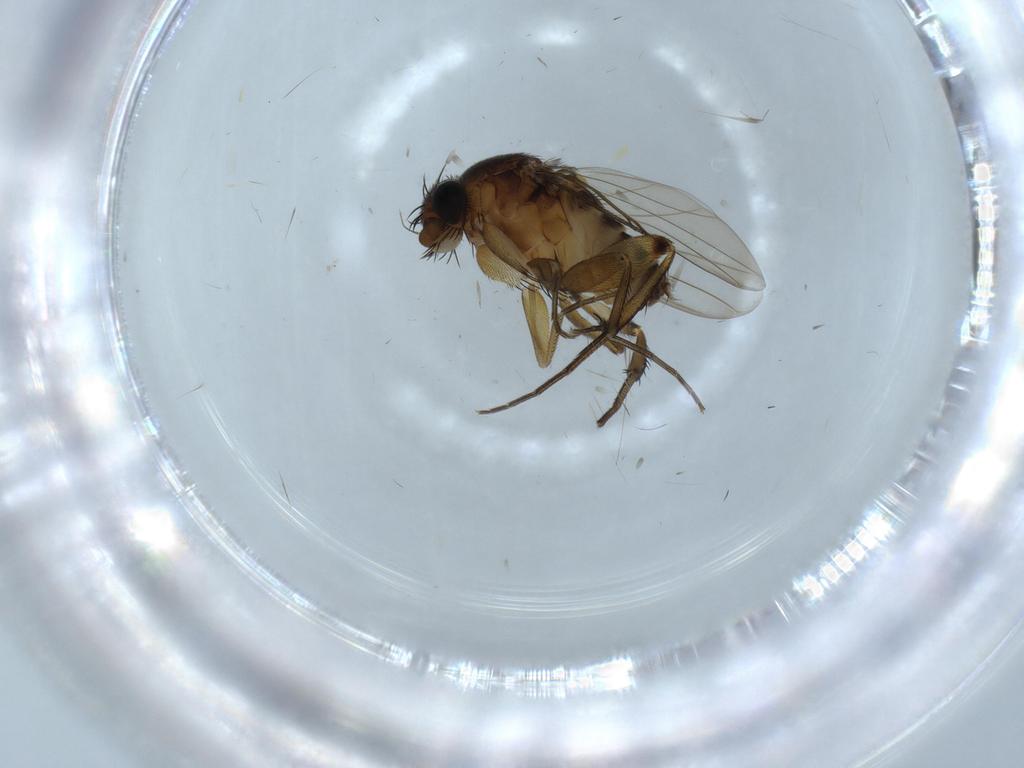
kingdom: Animalia
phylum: Arthropoda
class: Insecta
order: Diptera
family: Phoridae
